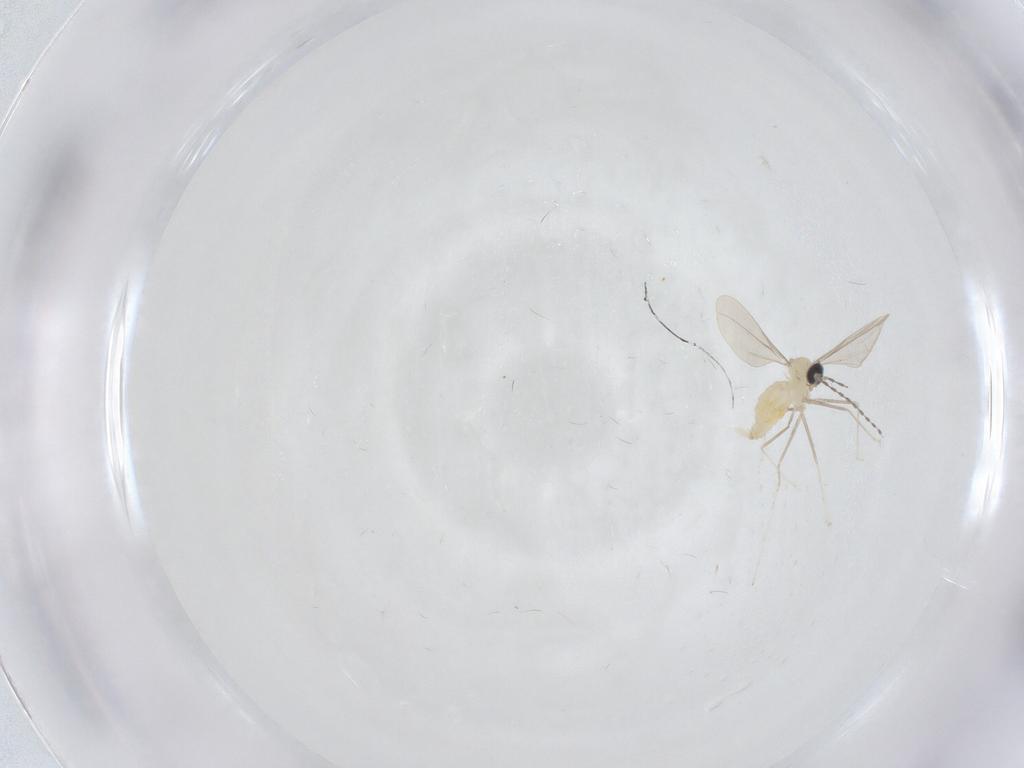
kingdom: Animalia
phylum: Arthropoda
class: Insecta
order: Diptera
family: Cecidomyiidae
